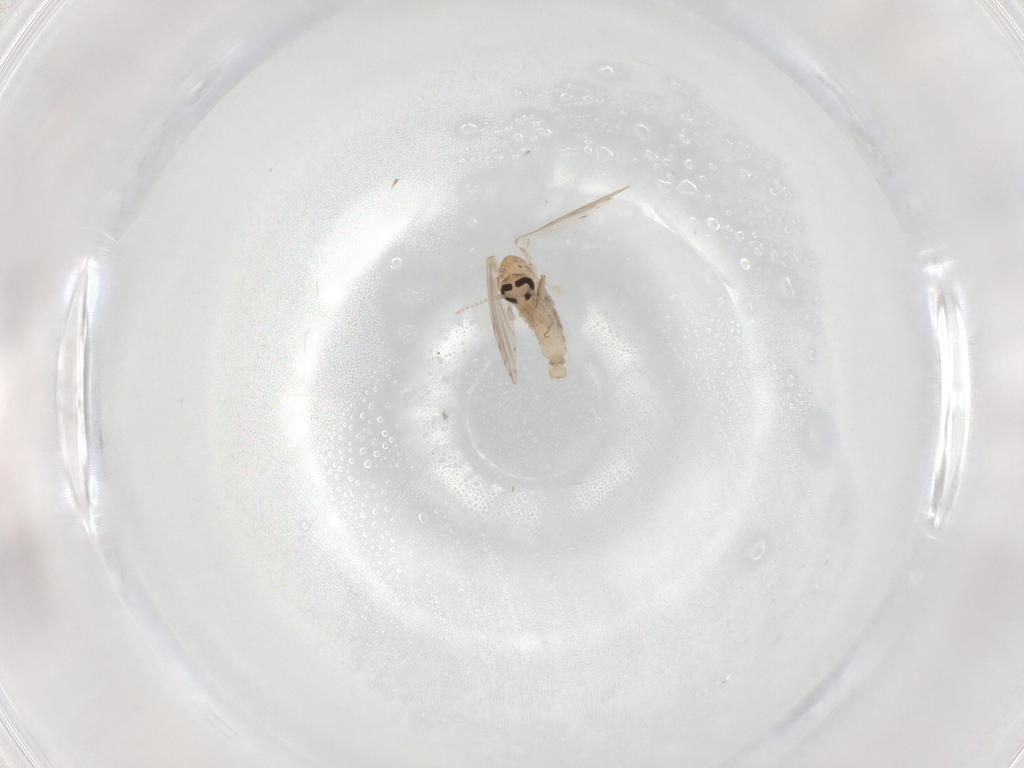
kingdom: Animalia
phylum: Arthropoda
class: Insecta
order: Diptera
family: Psychodidae
